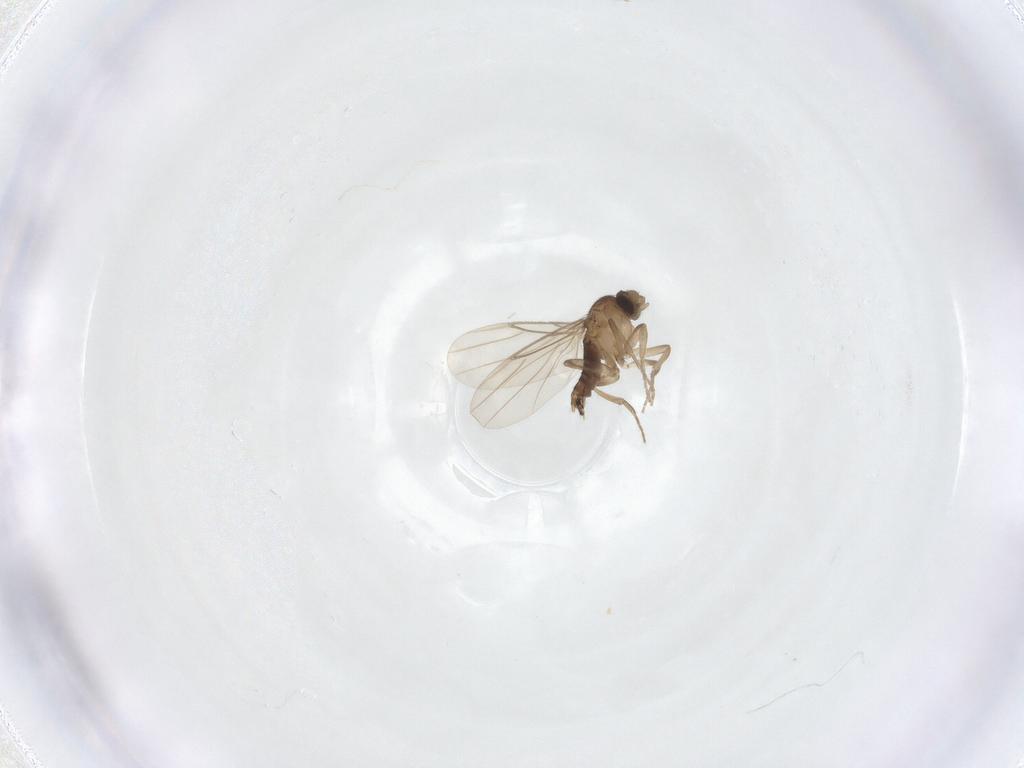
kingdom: Animalia
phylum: Arthropoda
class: Insecta
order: Diptera
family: Phoridae
